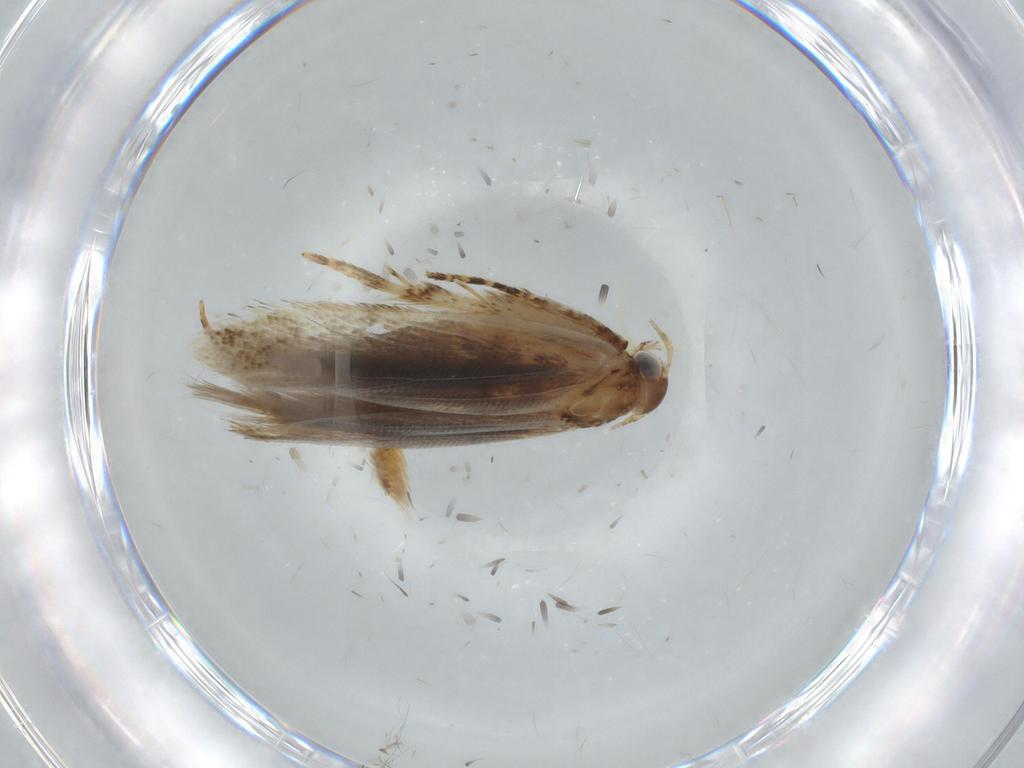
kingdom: Animalia
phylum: Arthropoda
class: Insecta
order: Lepidoptera
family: Gelechiidae
